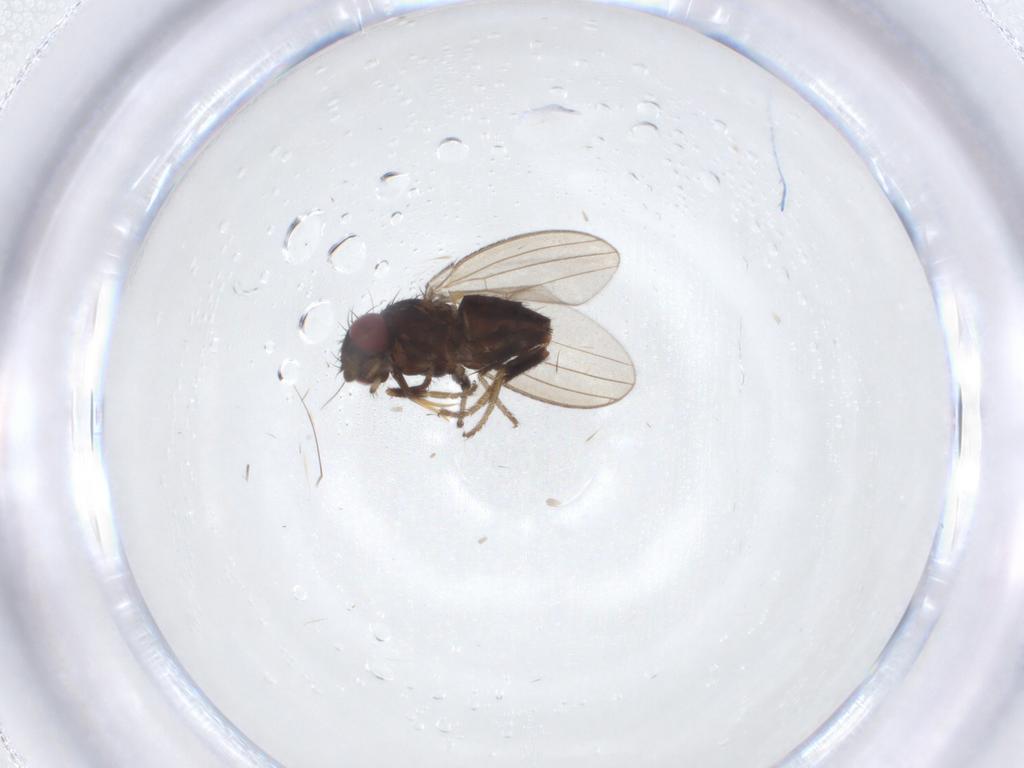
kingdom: Animalia
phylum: Arthropoda
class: Insecta
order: Diptera
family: Milichiidae
